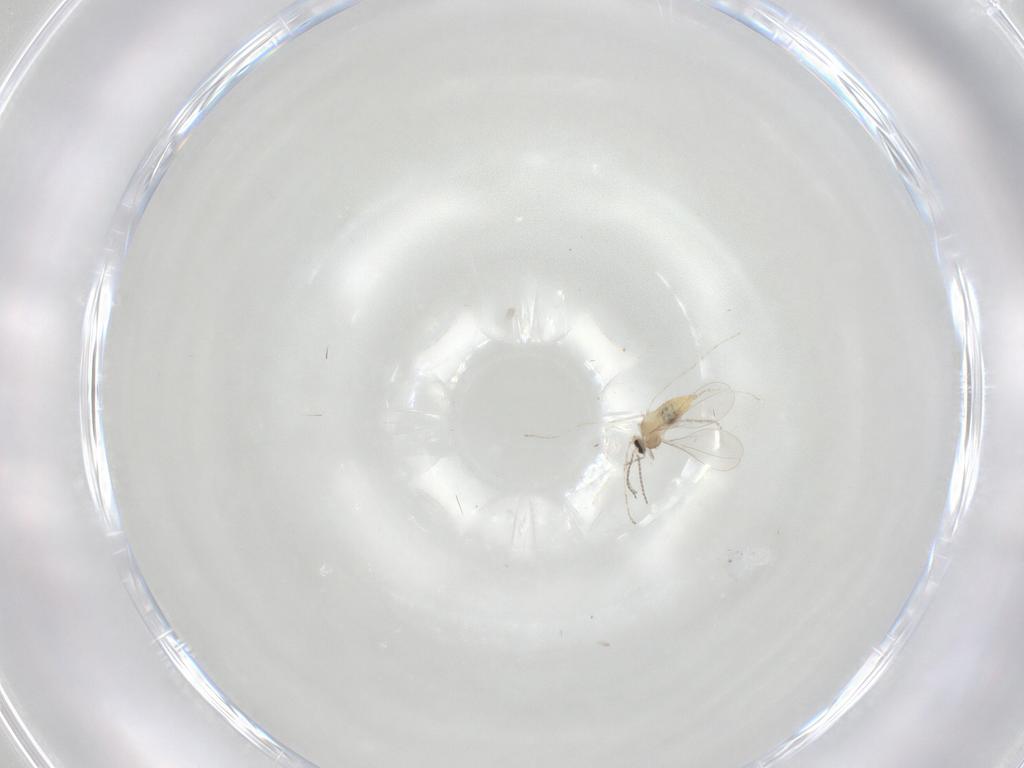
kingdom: Animalia
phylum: Arthropoda
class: Insecta
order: Diptera
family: Cecidomyiidae
